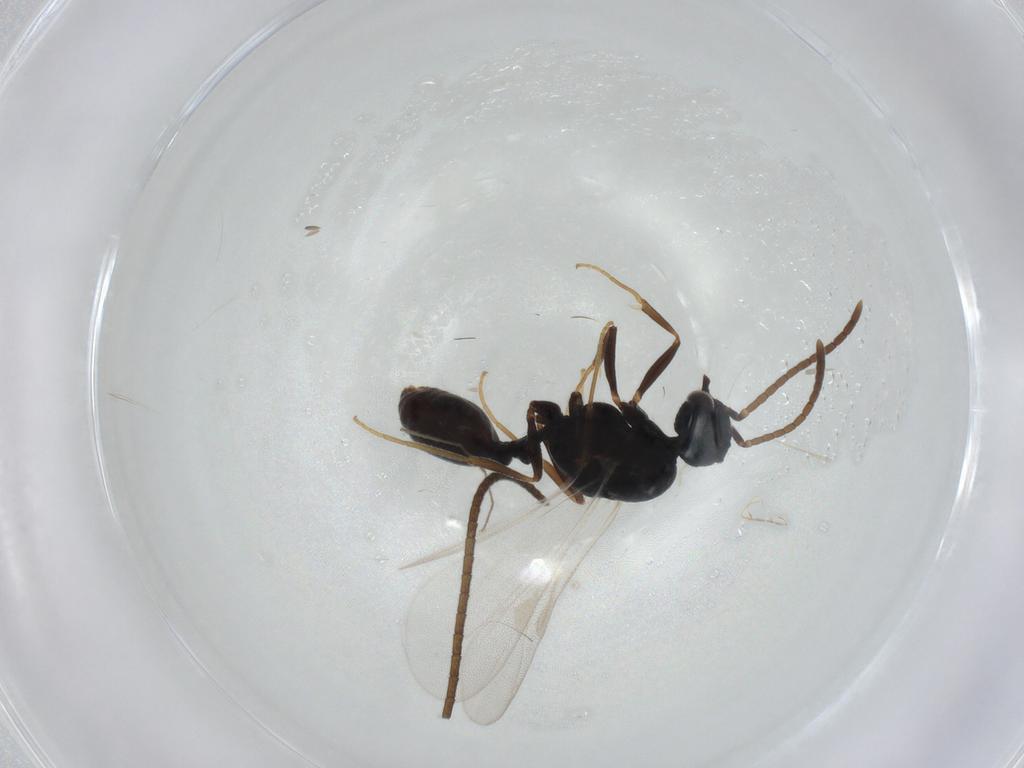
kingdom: Animalia
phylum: Arthropoda
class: Insecta
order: Hymenoptera
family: Formicidae
